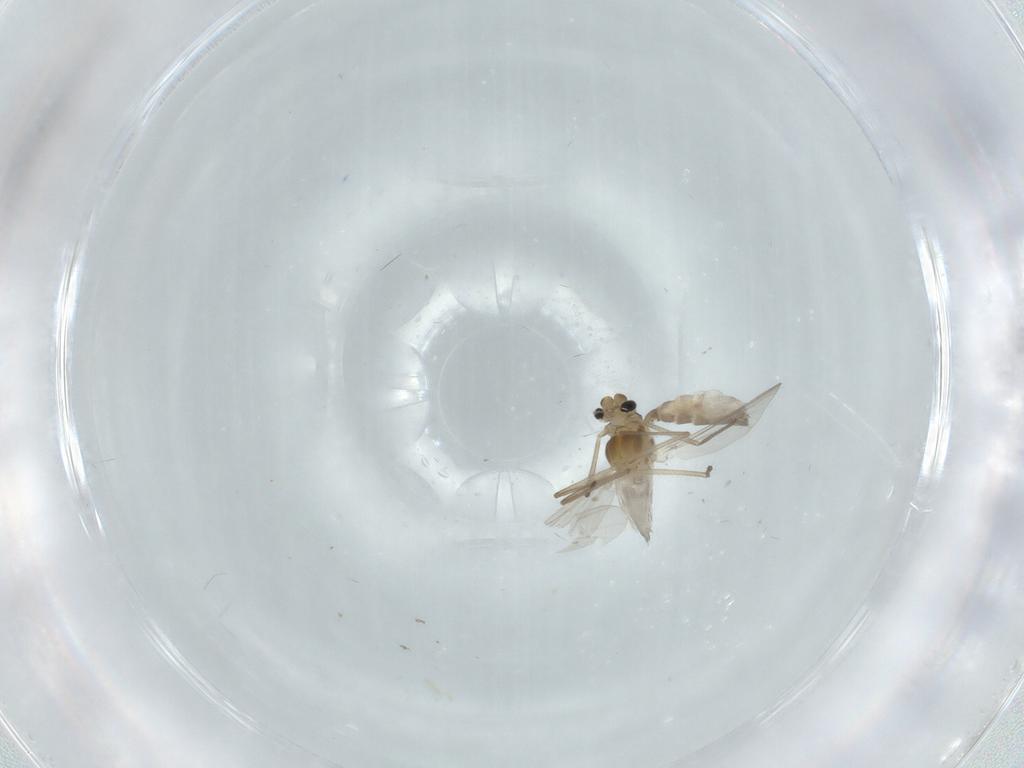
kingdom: Animalia
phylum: Arthropoda
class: Insecta
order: Diptera
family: Chironomidae
